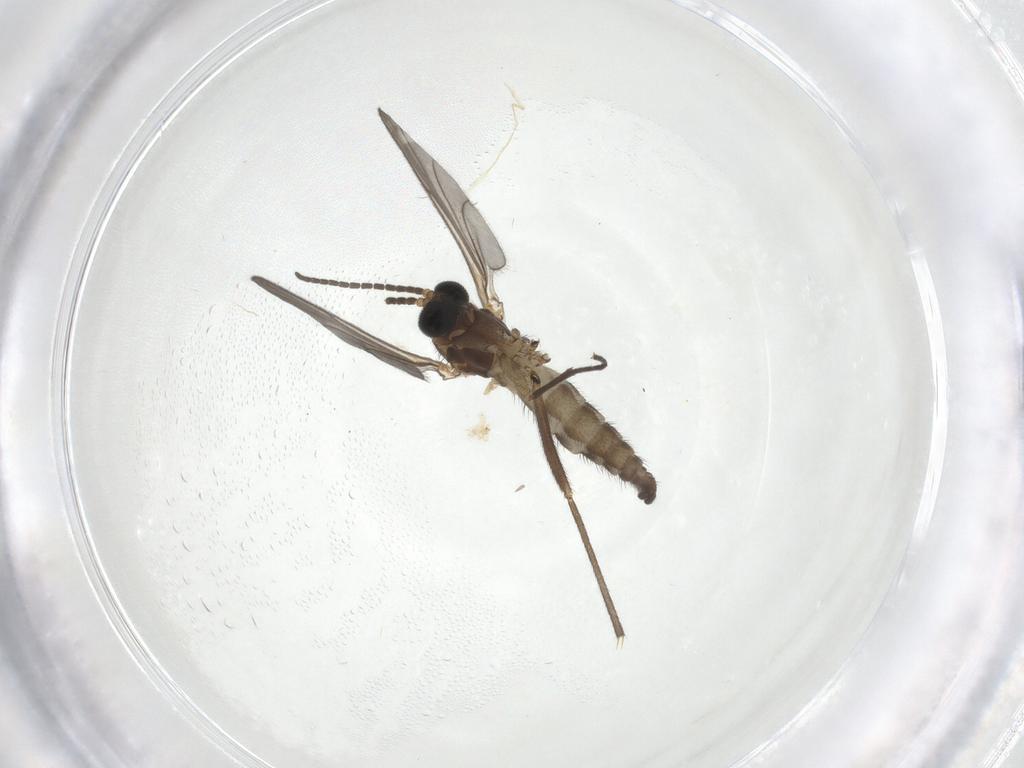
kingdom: Animalia
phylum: Arthropoda
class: Insecta
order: Diptera
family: Sciaridae
